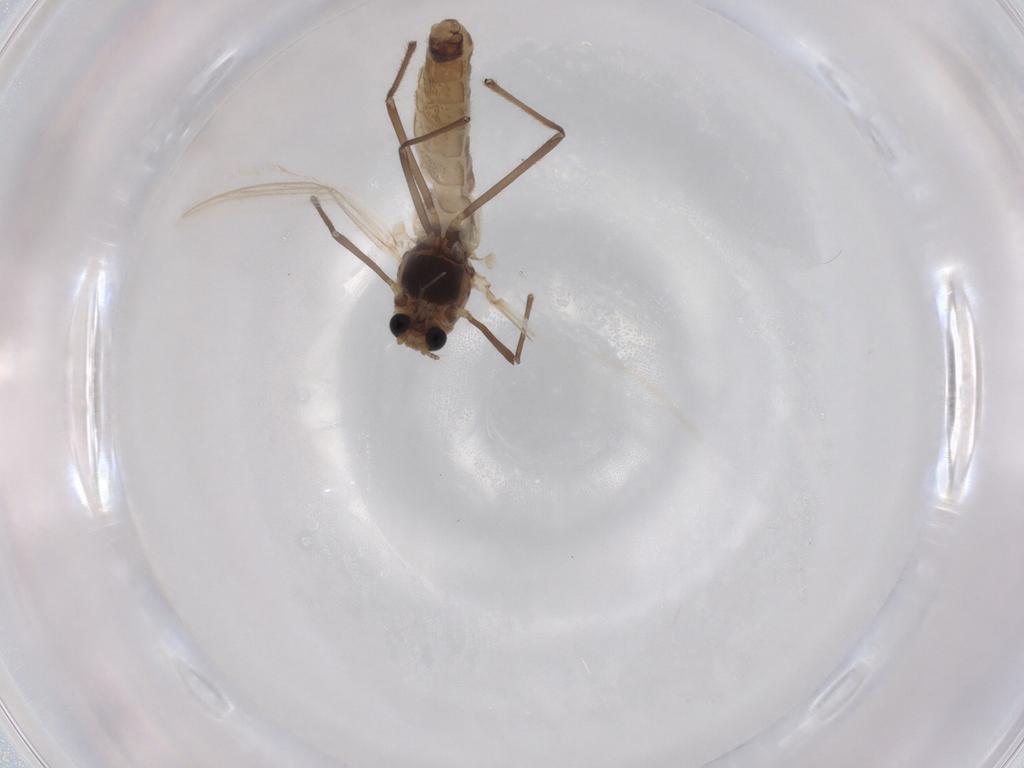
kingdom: Animalia
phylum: Arthropoda
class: Insecta
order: Diptera
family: Chironomidae
